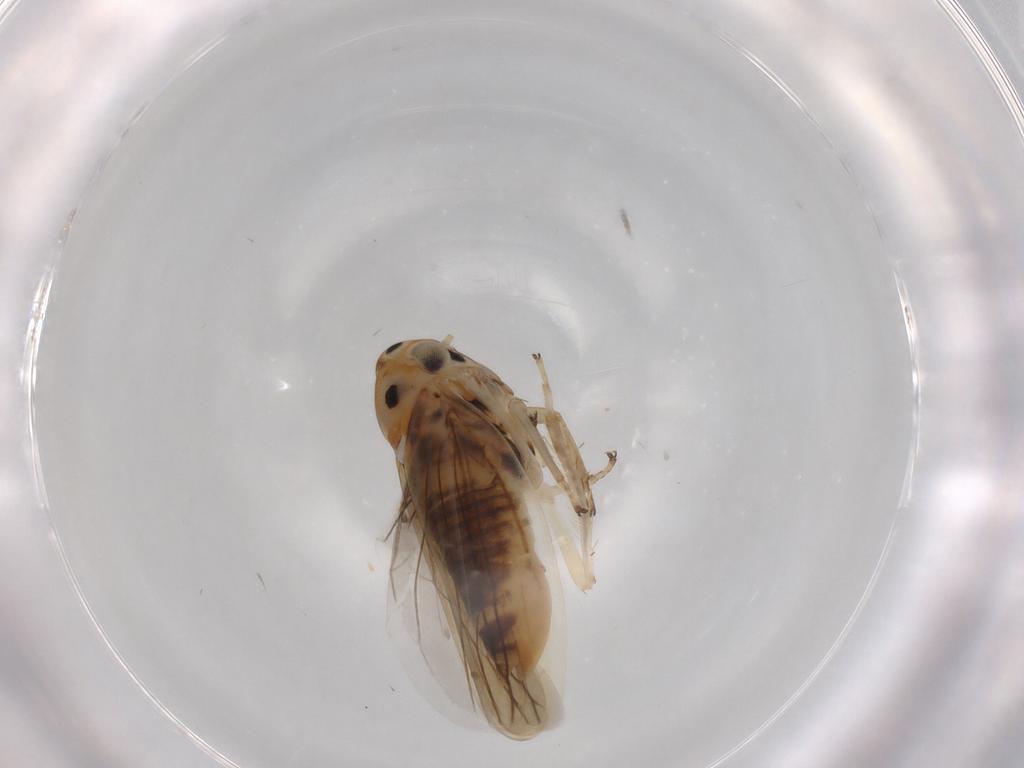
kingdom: Animalia
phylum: Arthropoda
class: Insecta
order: Hemiptera
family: Cicadellidae
